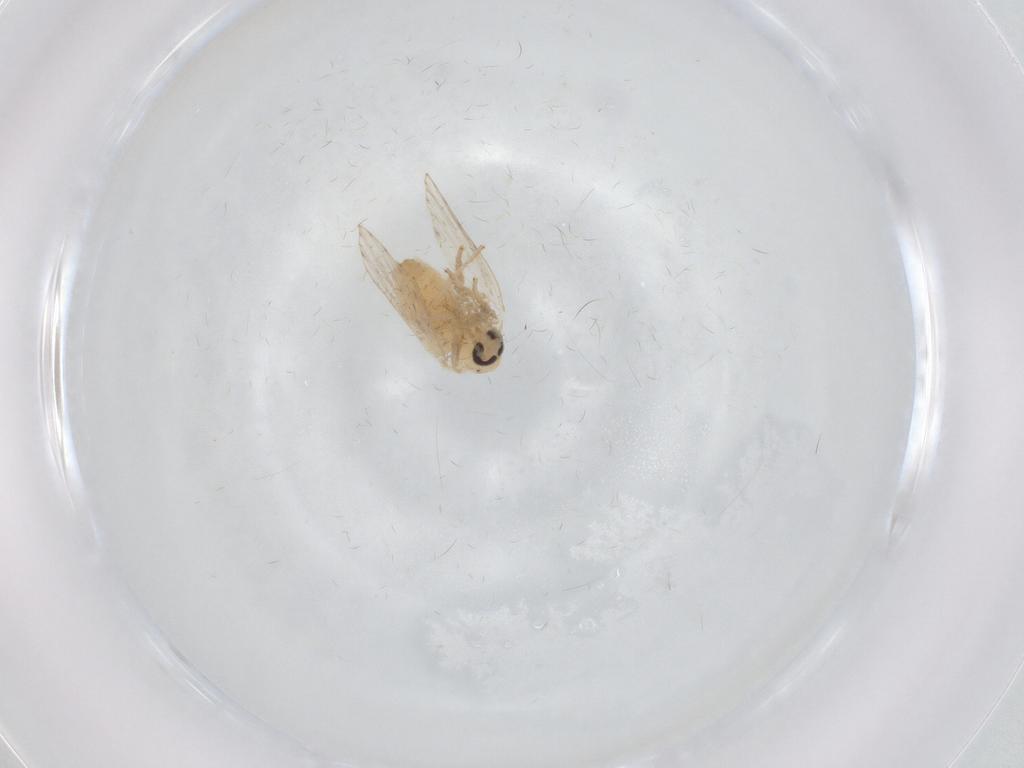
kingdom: Animalia
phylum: Arthropoda
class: Insecta
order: Diptera
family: Psychodidae
